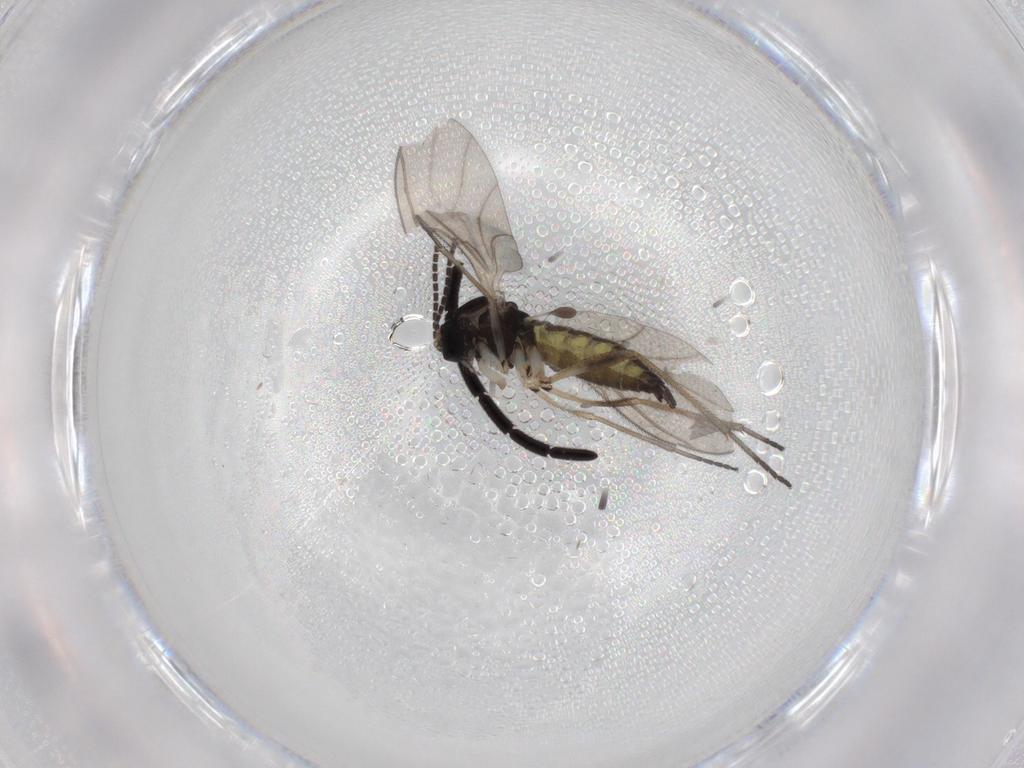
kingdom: Animalia
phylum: Arthropoda
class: Insecta
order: Diptera
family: Sciaridae
